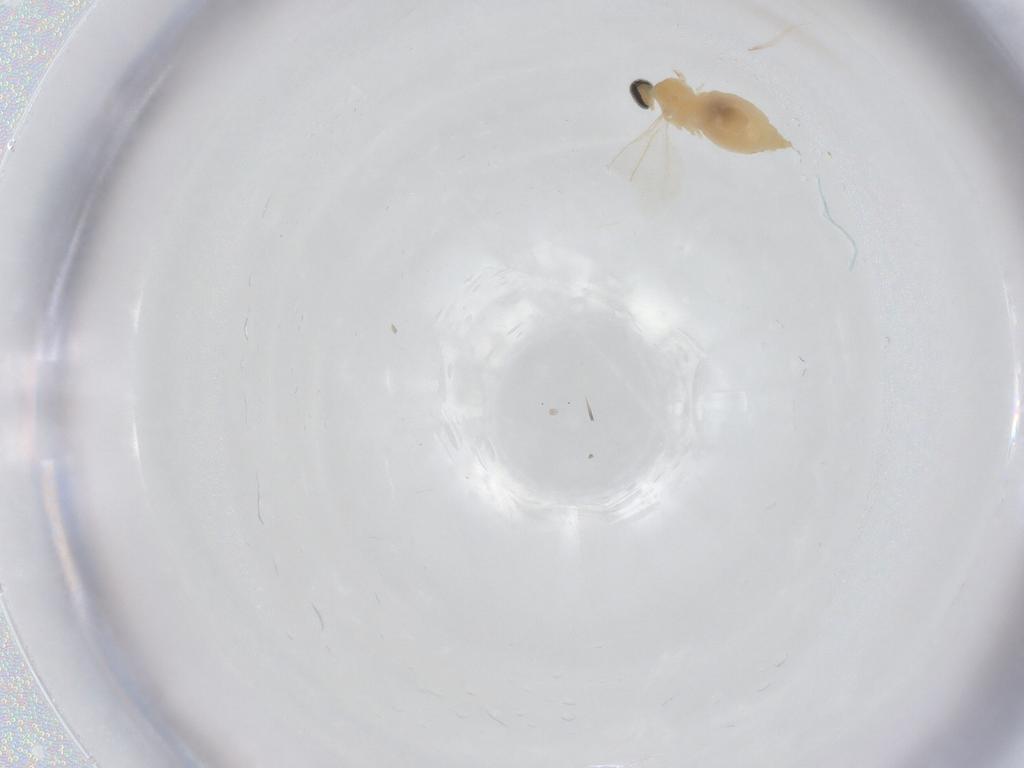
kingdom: Animalia
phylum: Arthropoda
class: Insecta
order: Diptera
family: Cecidomyiidae
